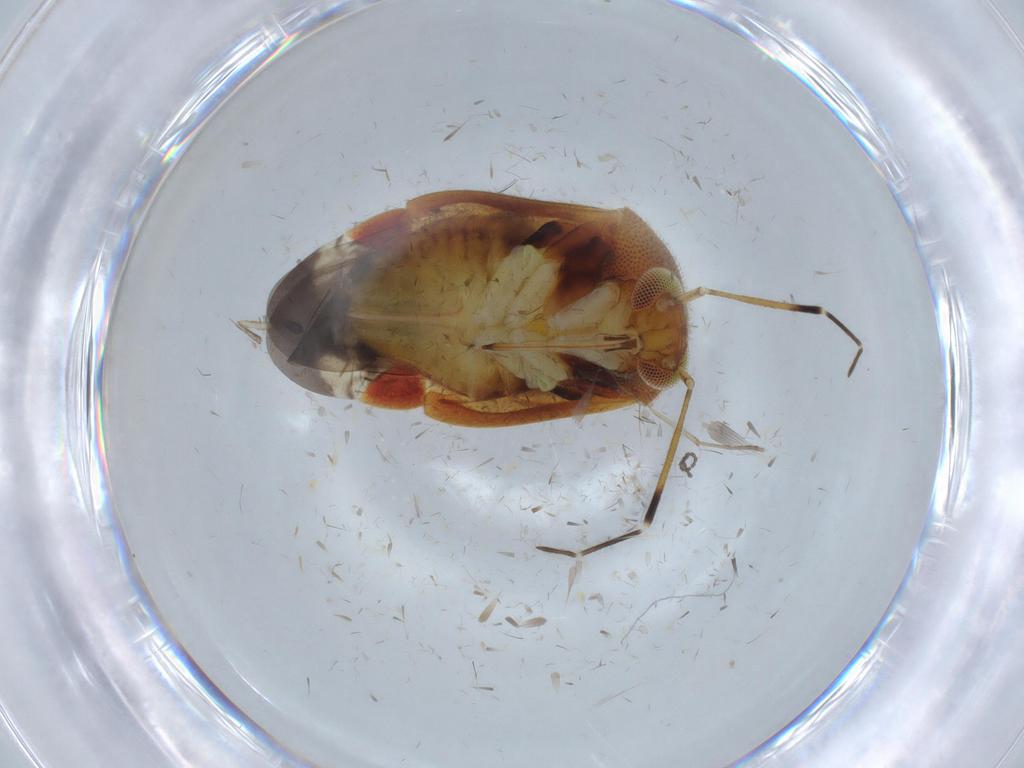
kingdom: Animalia
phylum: Arthropoda
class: Insecta
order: Hemiptera
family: Miridae
